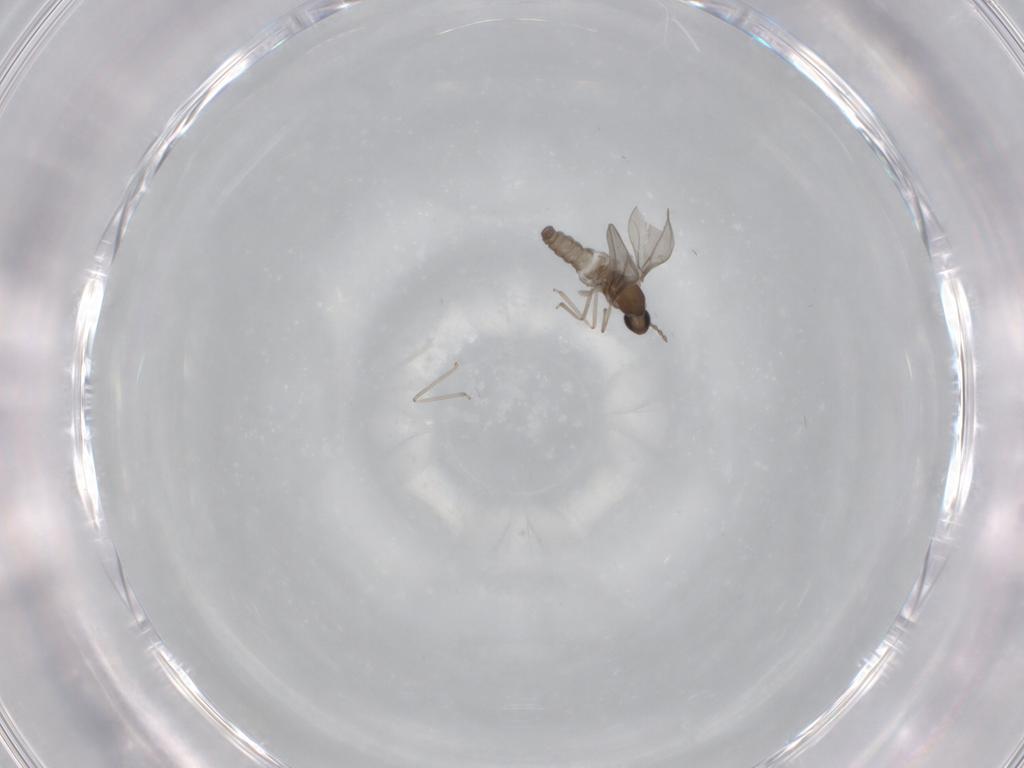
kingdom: Animalia
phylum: Arthropoda
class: Insecta
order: Diptera
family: Cecidomyiidae
